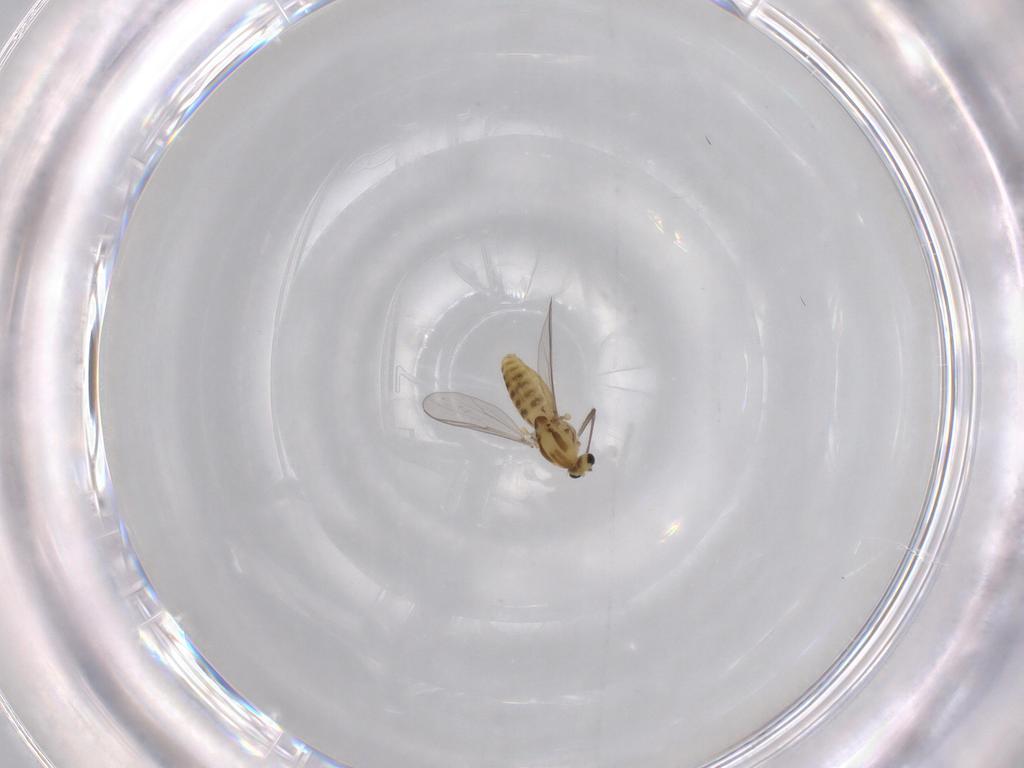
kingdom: Animalia
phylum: Arthropoda
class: Insecta
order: Diptera
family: Chironomidae
